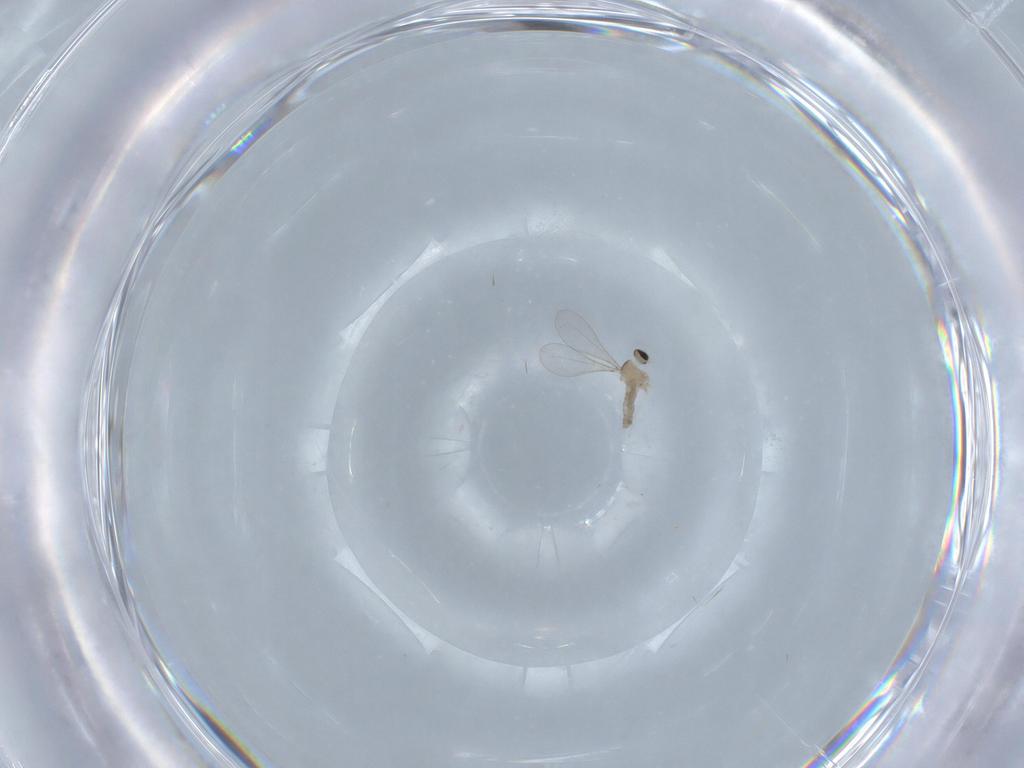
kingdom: Animalia
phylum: Arthropoda
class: Insecta
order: Diptera
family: Cecidomyiidae
